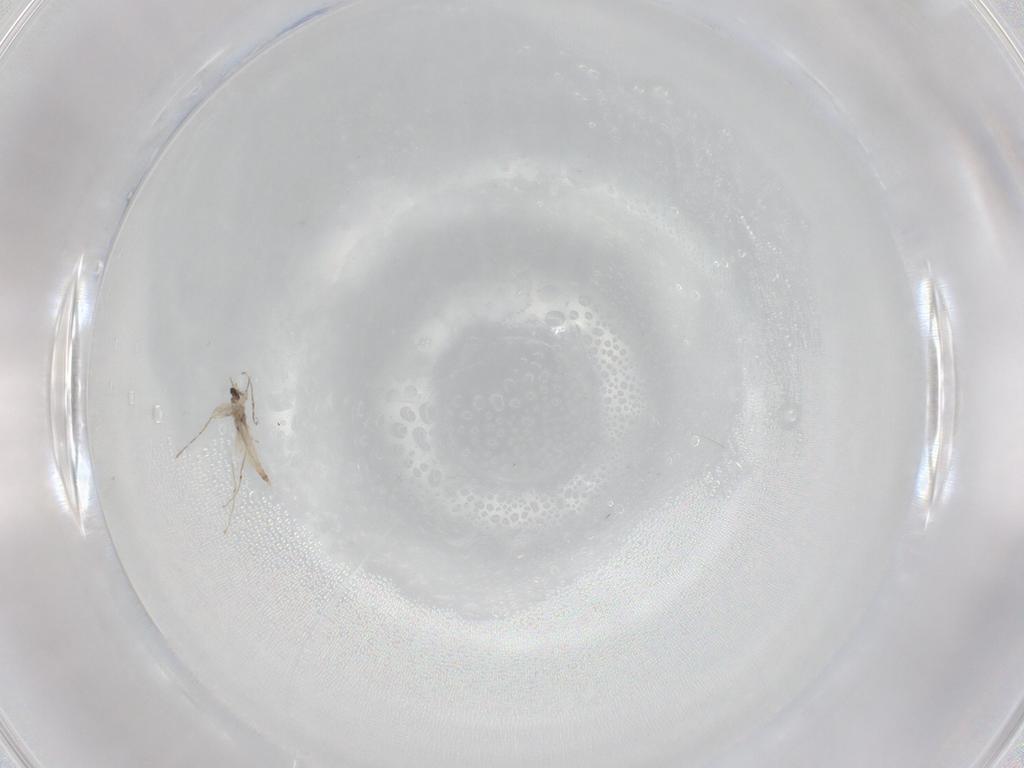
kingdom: Animalia
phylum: Arthropoda
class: Insecta
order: Diptera
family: Cecidomyiidae
